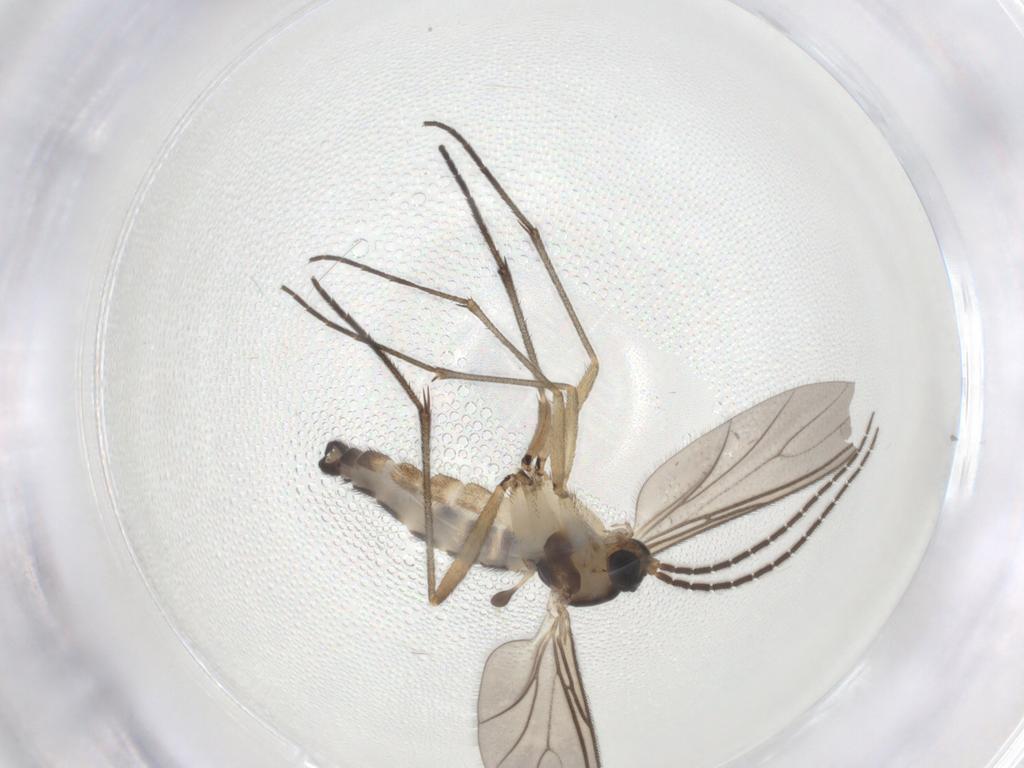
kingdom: Animalia
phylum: Arthropoda
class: Insecta
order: Diptera
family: Sciaridae
